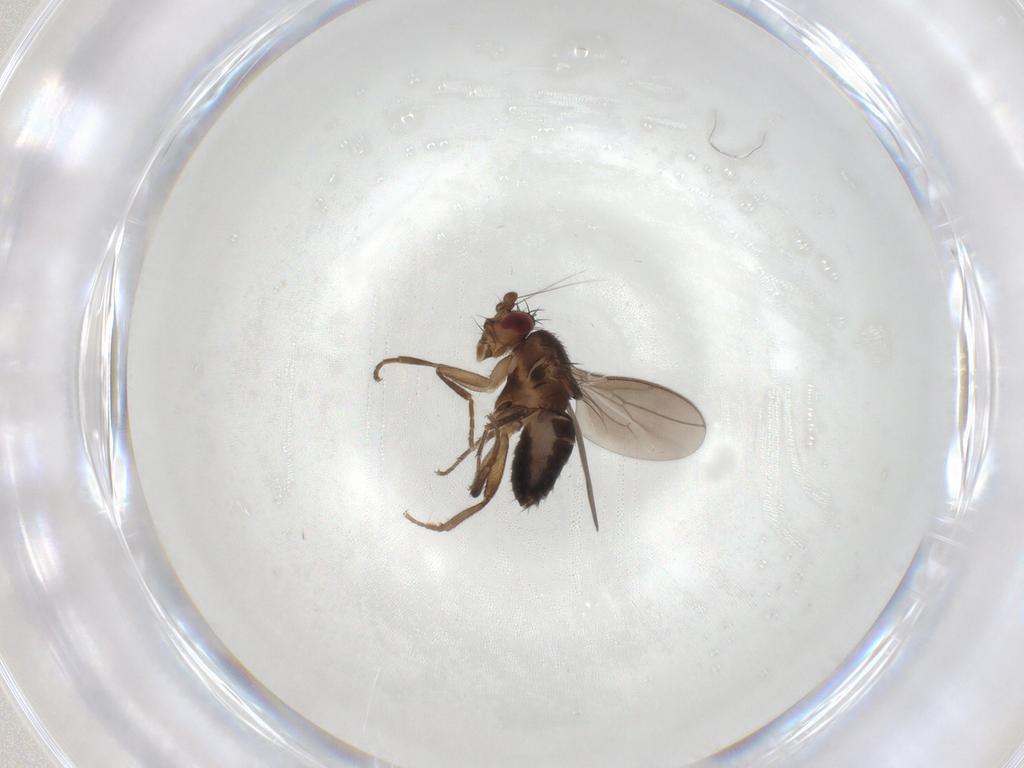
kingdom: Animalia
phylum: Arthropoda
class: Insecta
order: Diptera
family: Sphaeroceridae
